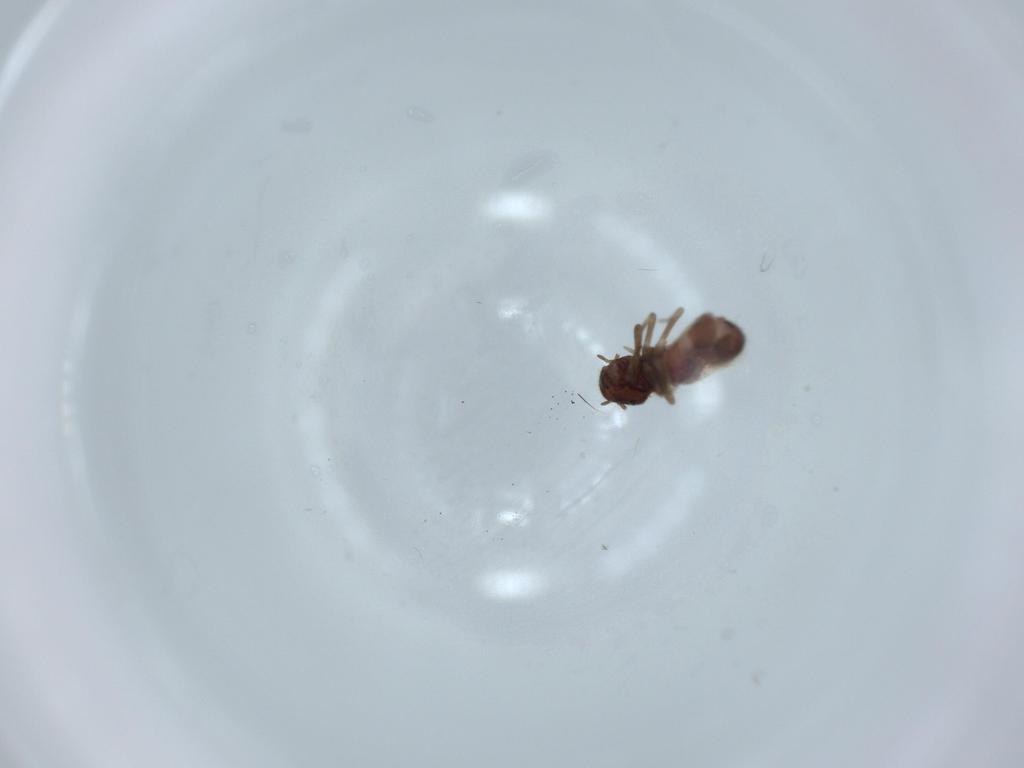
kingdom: Animalia
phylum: Arthropoda
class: Insecta
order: Psocodea
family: Archipsocidae
